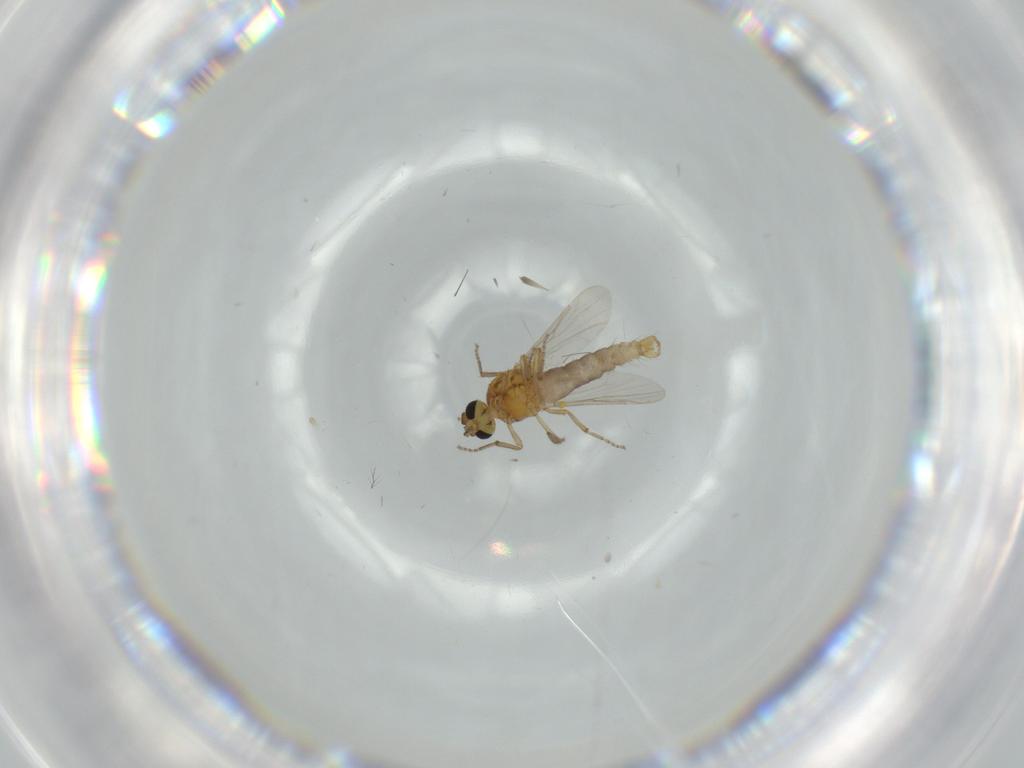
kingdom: Animalia
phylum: Arthropoda
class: Insecta
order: Diptera
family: Ceratopogonidae
